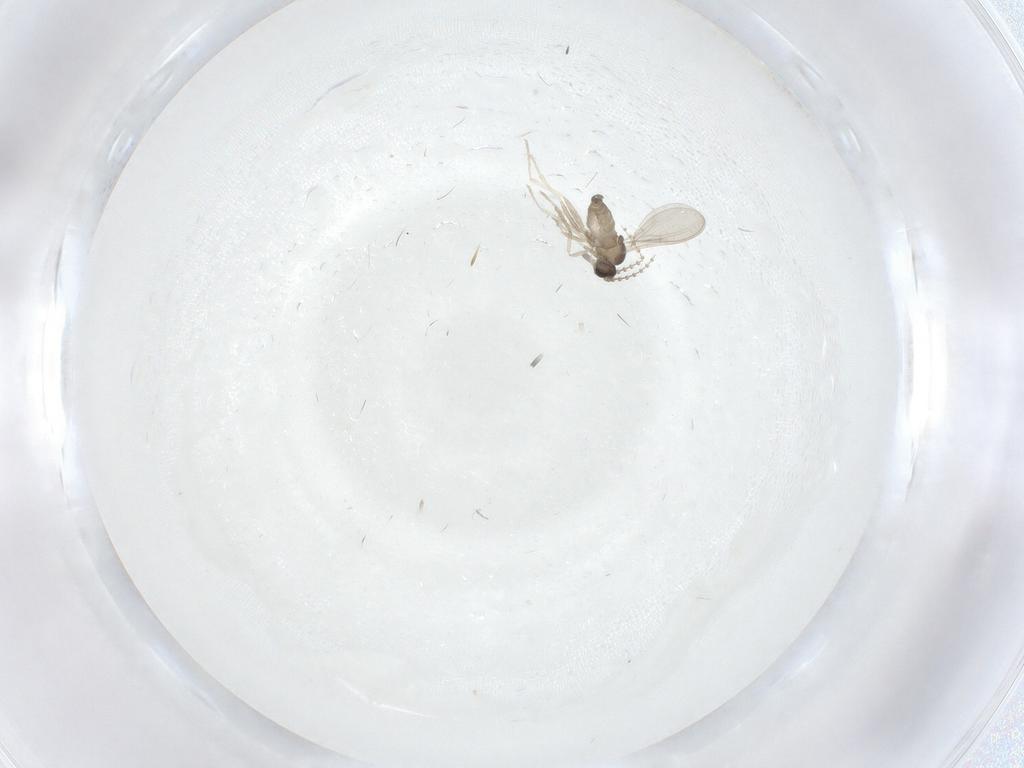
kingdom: Animalia
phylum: Arthropoda
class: Insecta
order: Diptera
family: Cecidomyiidae
